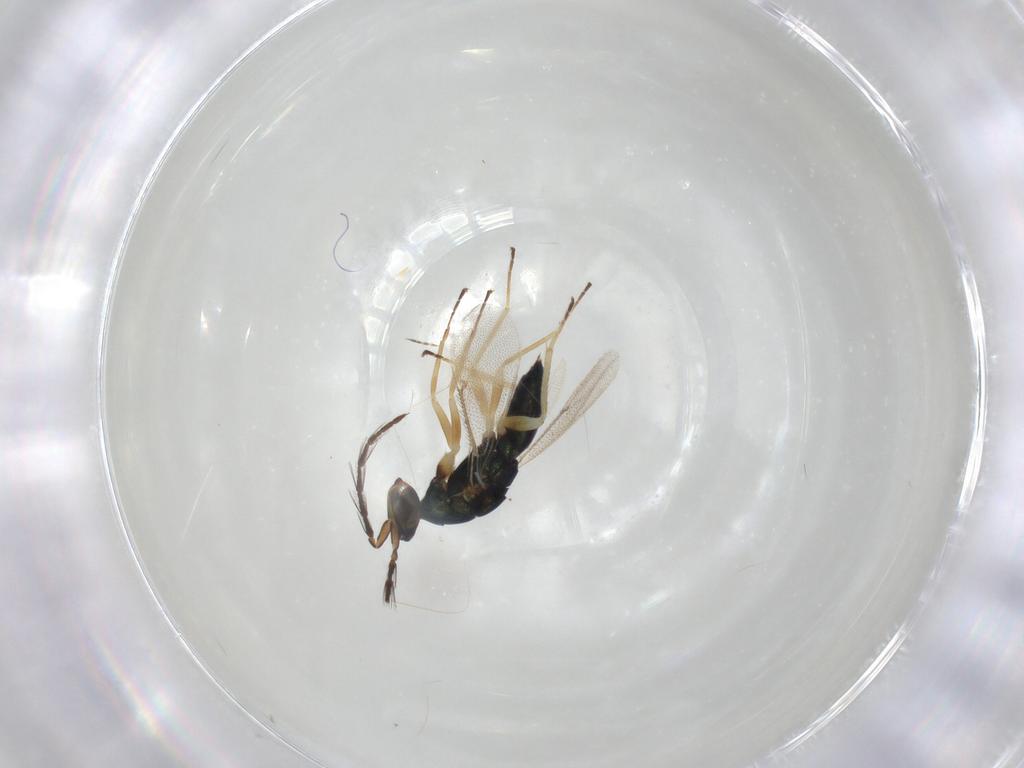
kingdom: Animalia
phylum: Arthropoda
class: Insecta
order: Hymenoptera
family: Eulophidae
